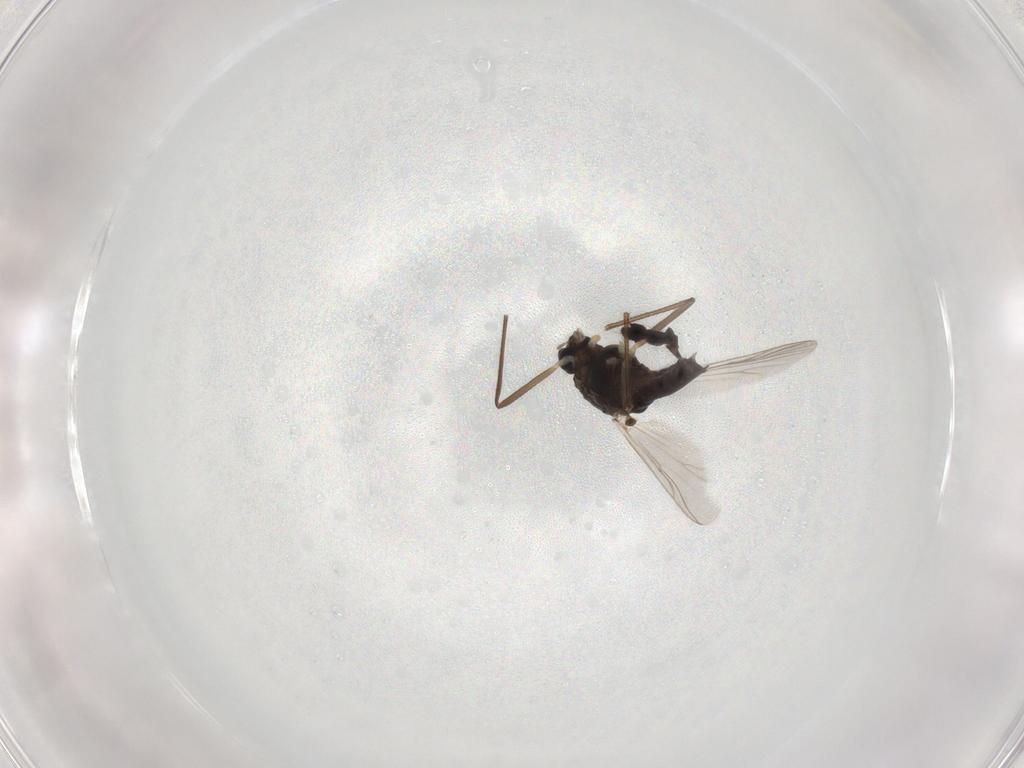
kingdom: Animalia
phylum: Arthropoda
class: Insecta
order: Diptera
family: Chironomidae
